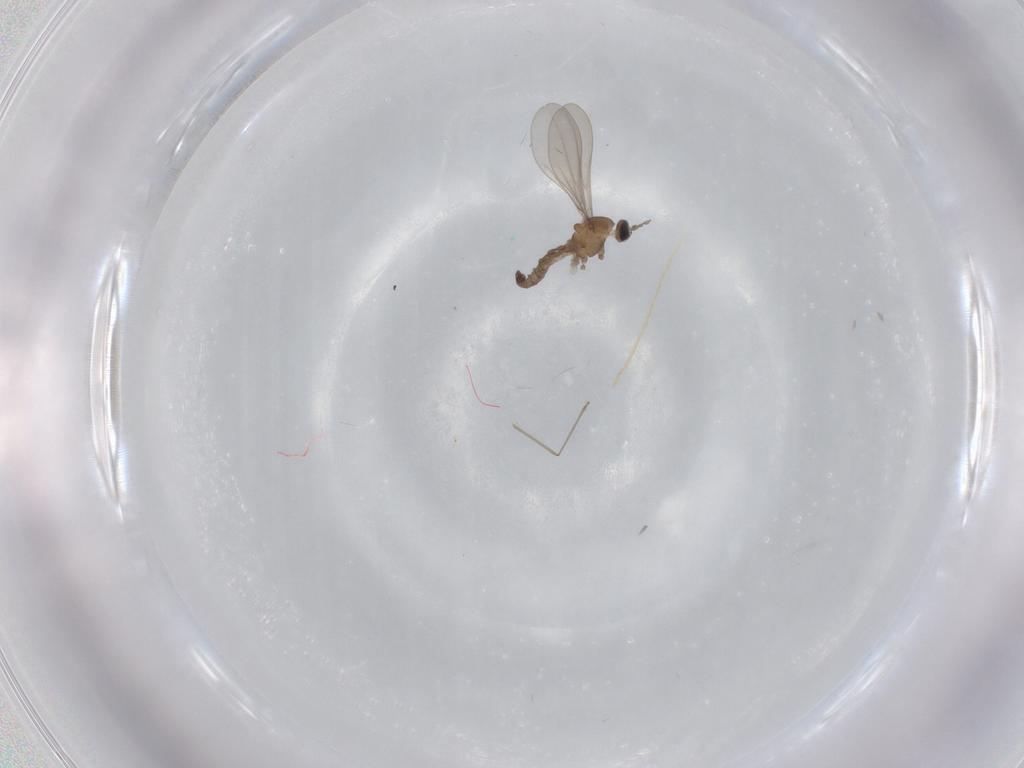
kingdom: Animalia
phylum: Arthropoda
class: Insecta
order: Diptera
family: Cecidomyiidae
